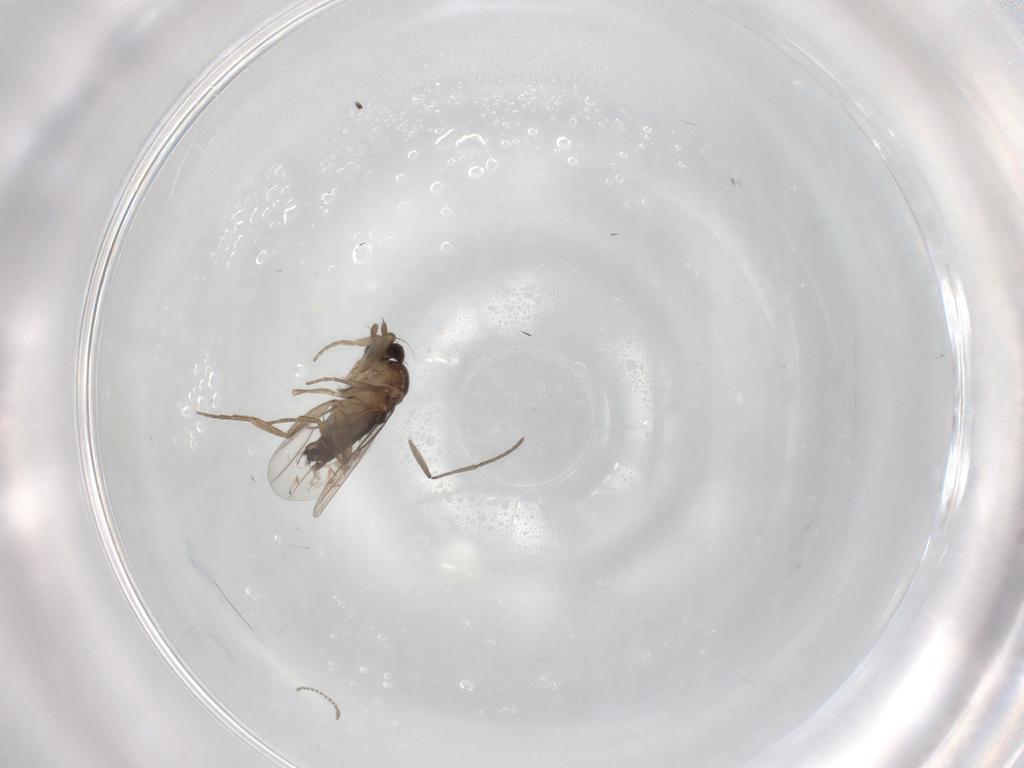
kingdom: Animalia
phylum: Arthropoda
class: Insecta
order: Diptera
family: Phoridae
